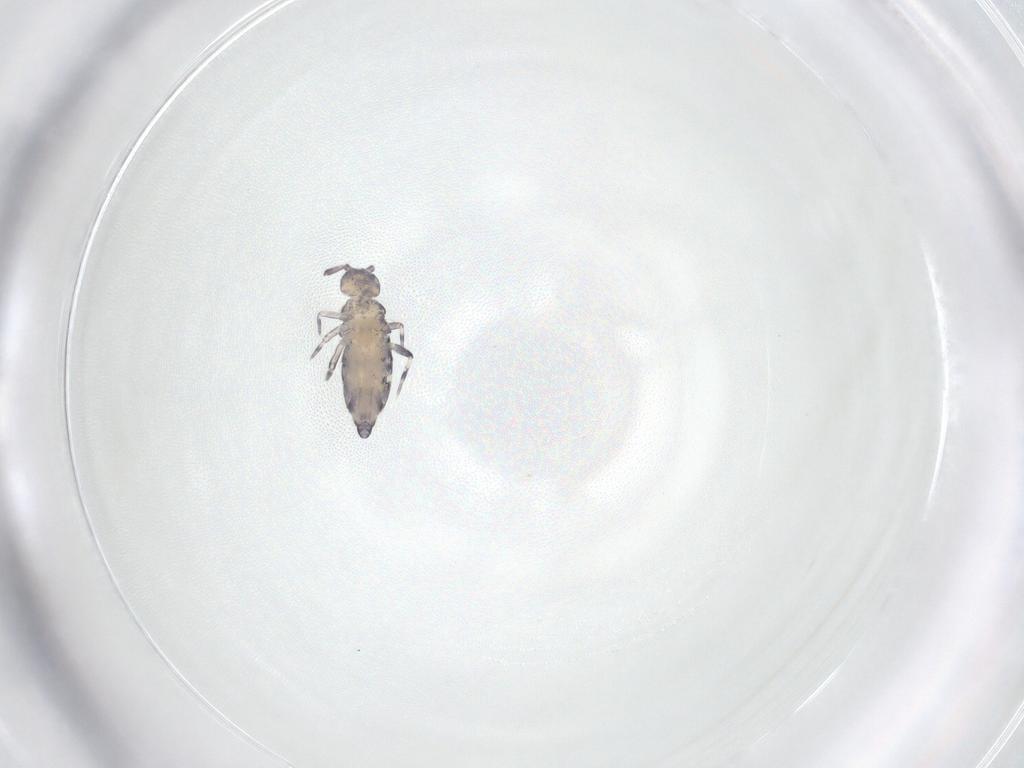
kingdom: Animalia
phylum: Arthropoda
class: Collembola
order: Entomobryomorpha
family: Entomobryidae
